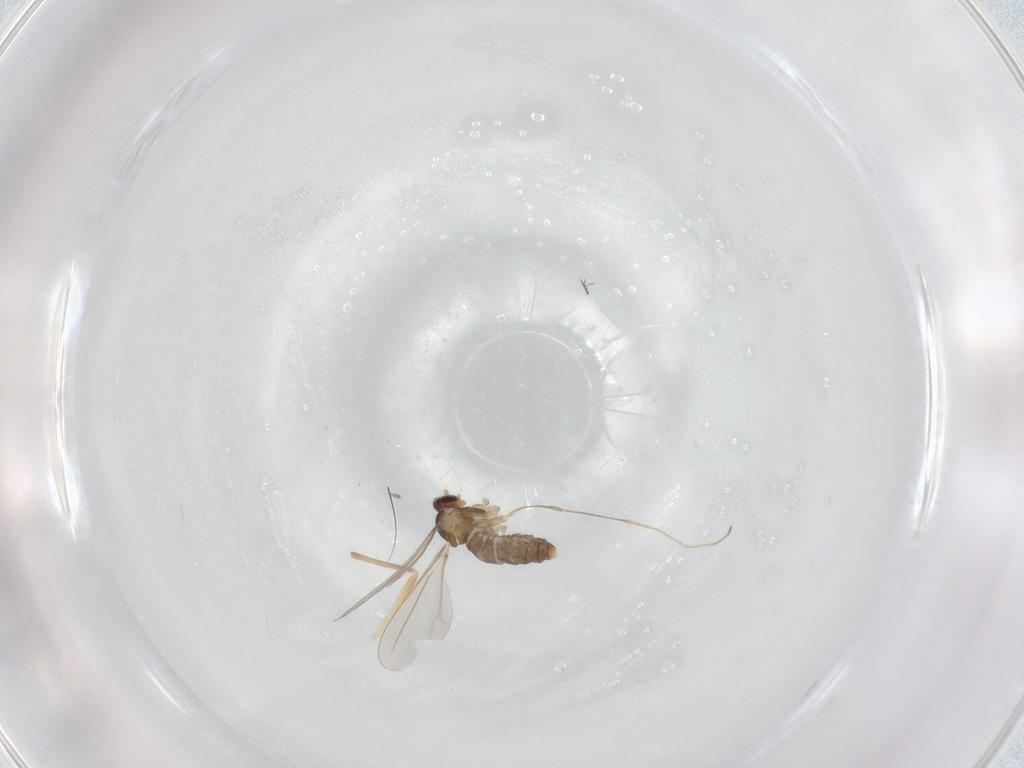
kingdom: Animalia
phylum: Arthropoda
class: Insecta
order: Diptera
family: Cecidomyiidae
